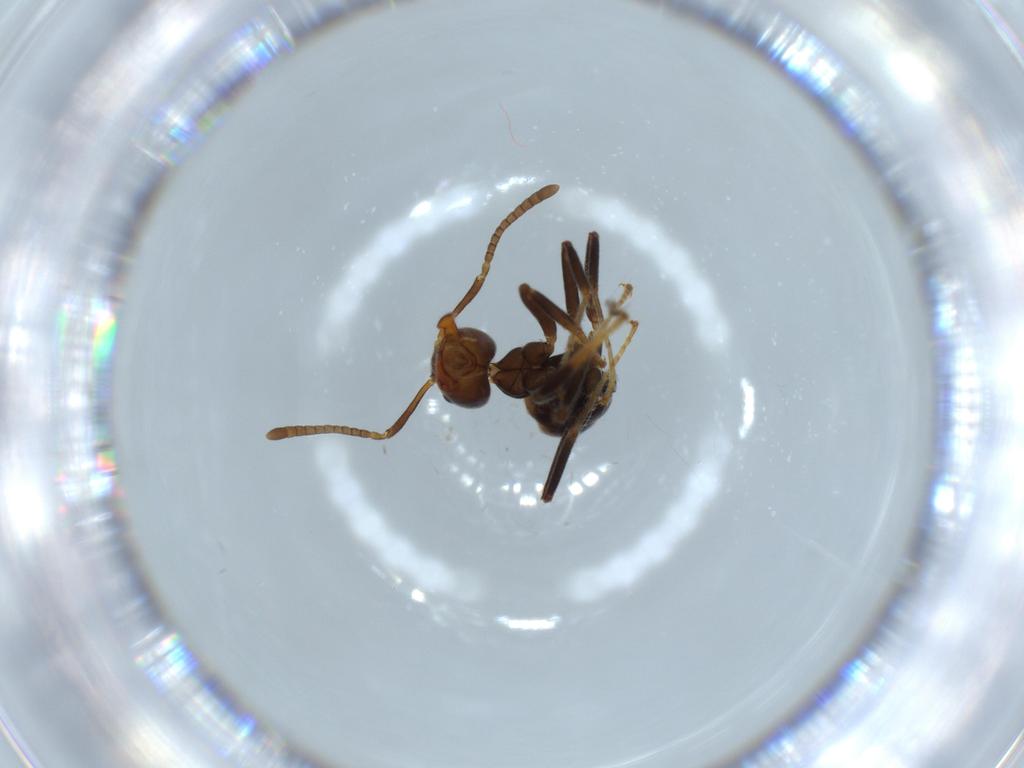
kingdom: Animalia
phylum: Arthropoda
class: Insecta
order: Hymenoptera
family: Formicidae
